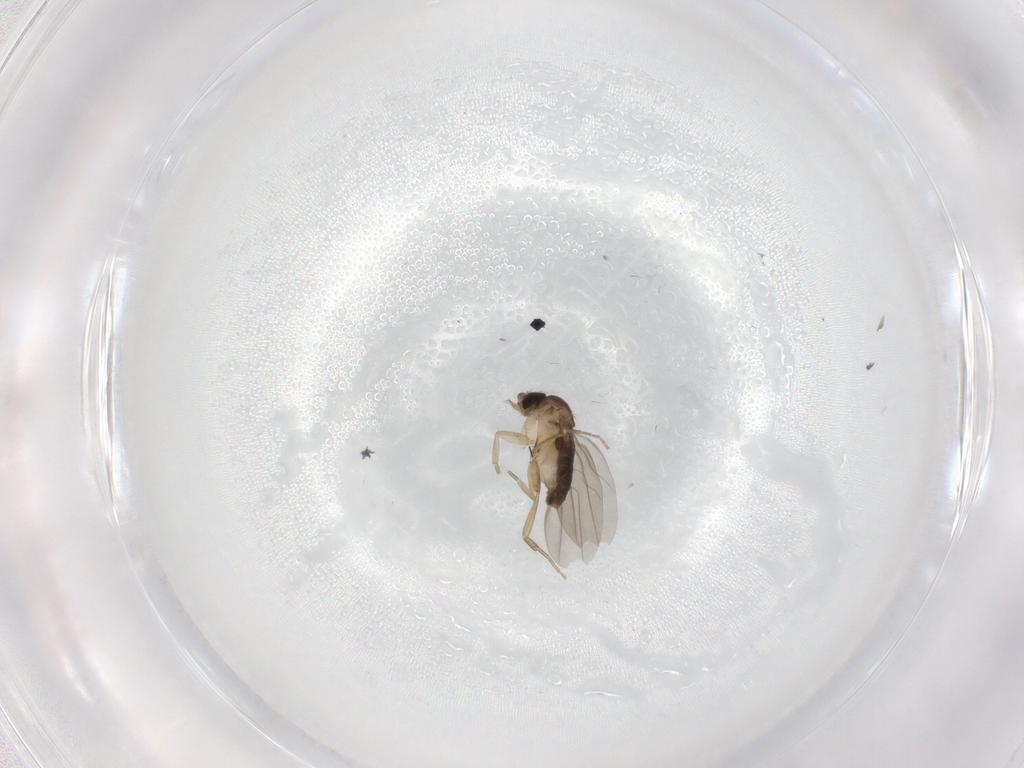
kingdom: Animalia
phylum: Arthropoda
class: Insecta
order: Diptera
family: Phoridae
